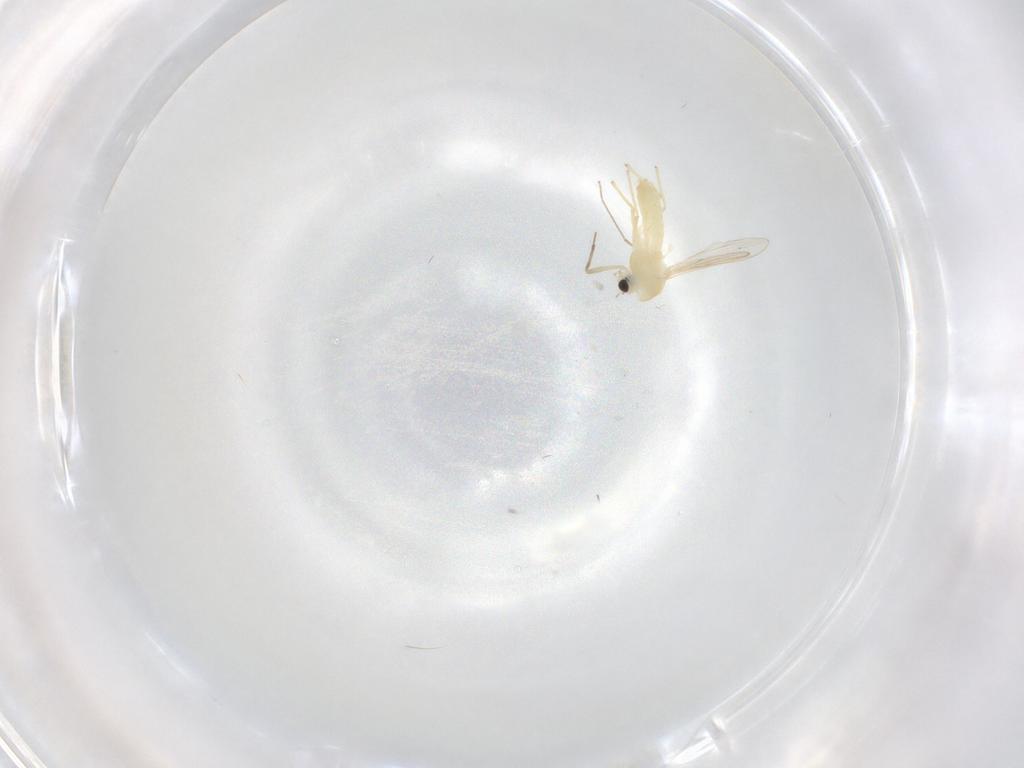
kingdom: Animalia
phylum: Arthropoda
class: Insecta
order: Diptera
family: Chironomidae
